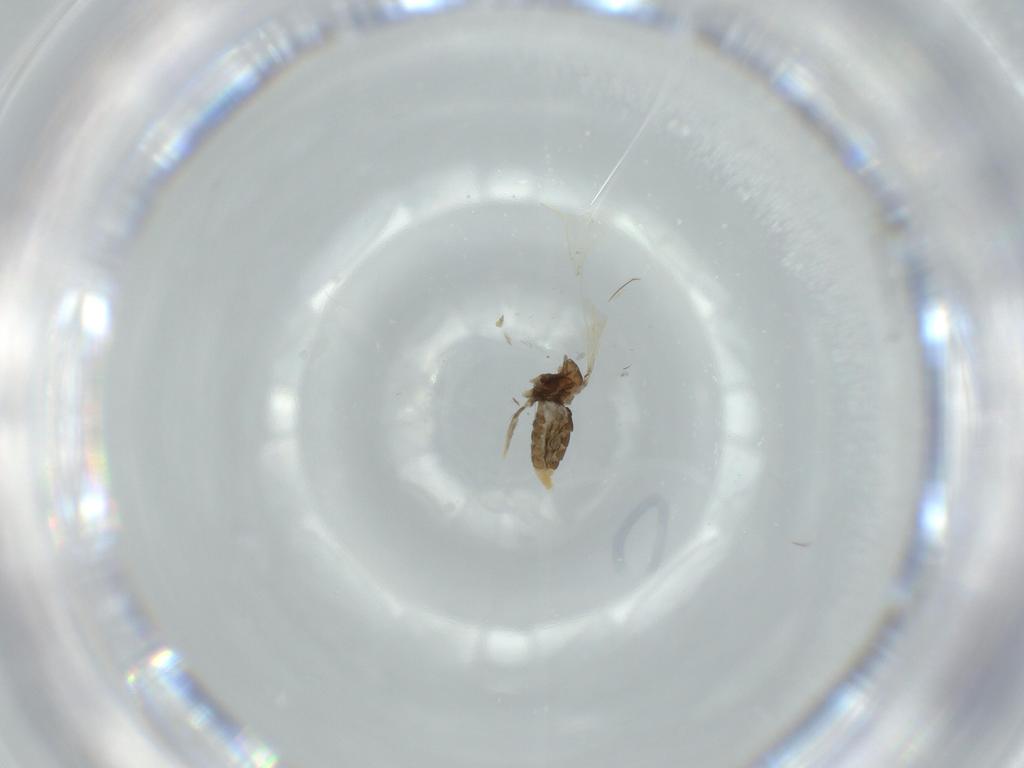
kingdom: Animalia
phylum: Arthropoda
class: Insecta
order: Diptera
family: Cecidomyiidae
